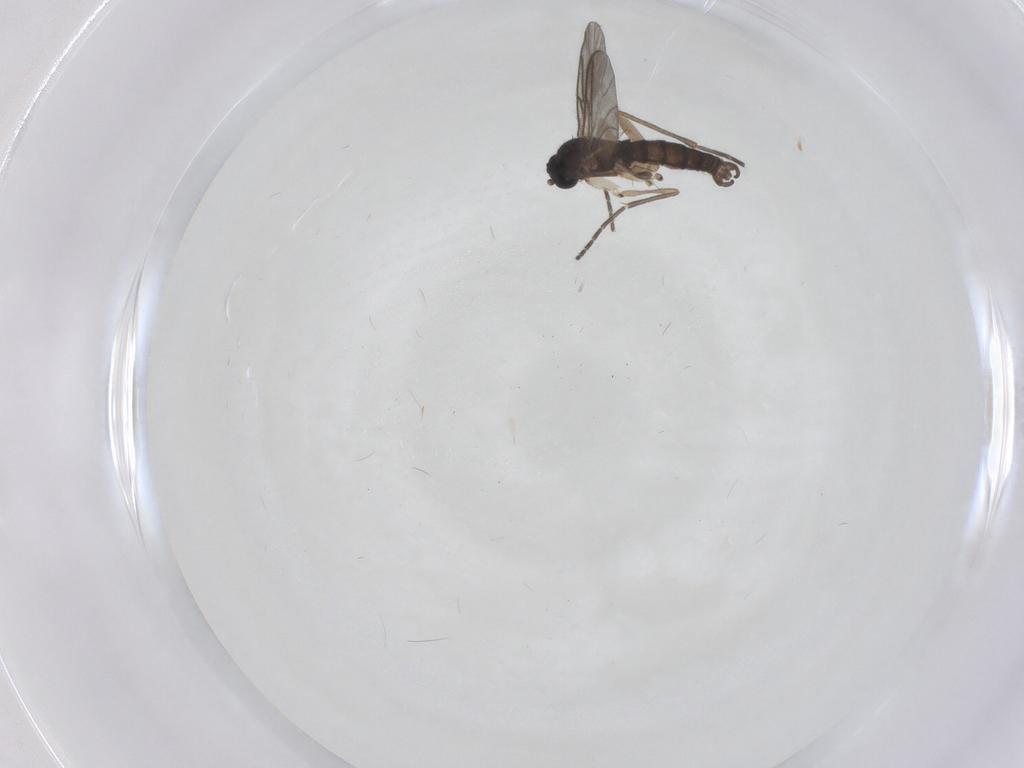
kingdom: Animalia
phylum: Arthropoda
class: Insecta
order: Diptera
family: Sciaridae
